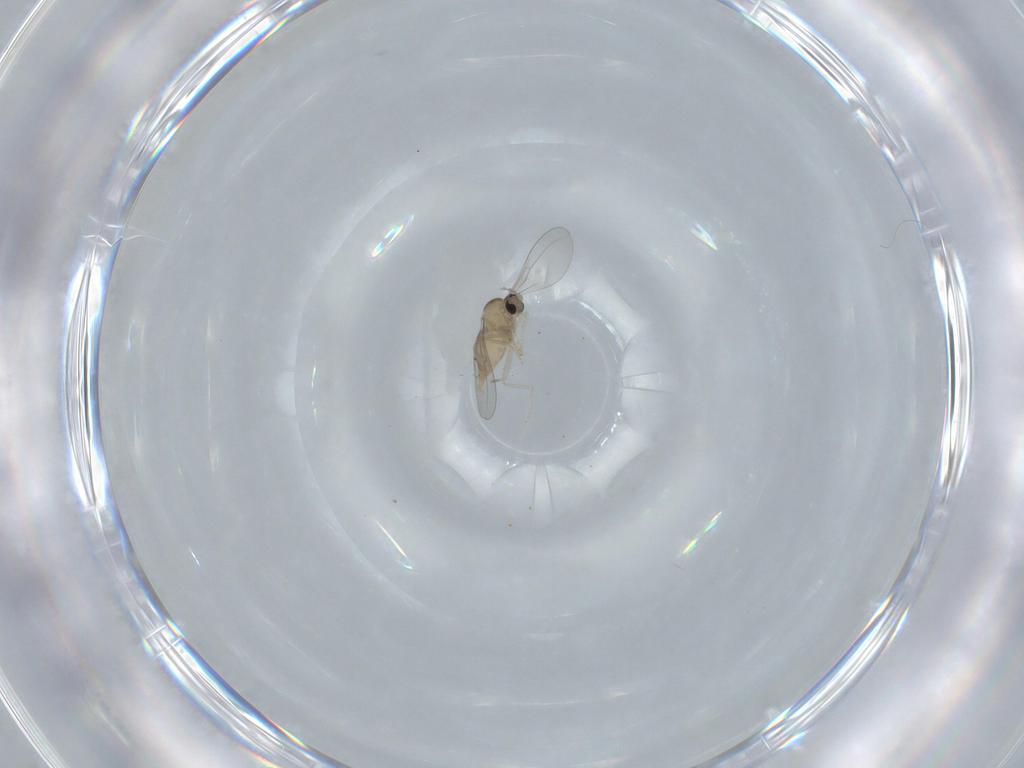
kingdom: Animalia
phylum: Arthropoda
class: Insecta
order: Diptera
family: Cecidomyiidae
